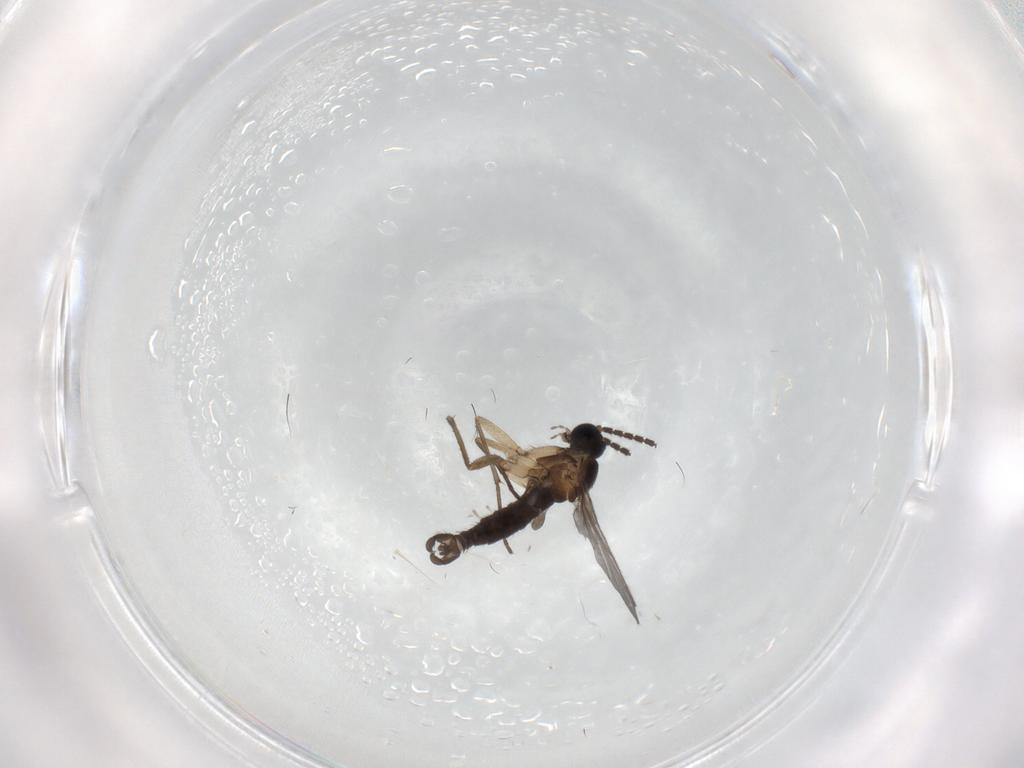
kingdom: Animalia
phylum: Arthropoda
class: Insecta
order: Diptera
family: Sciaridae
